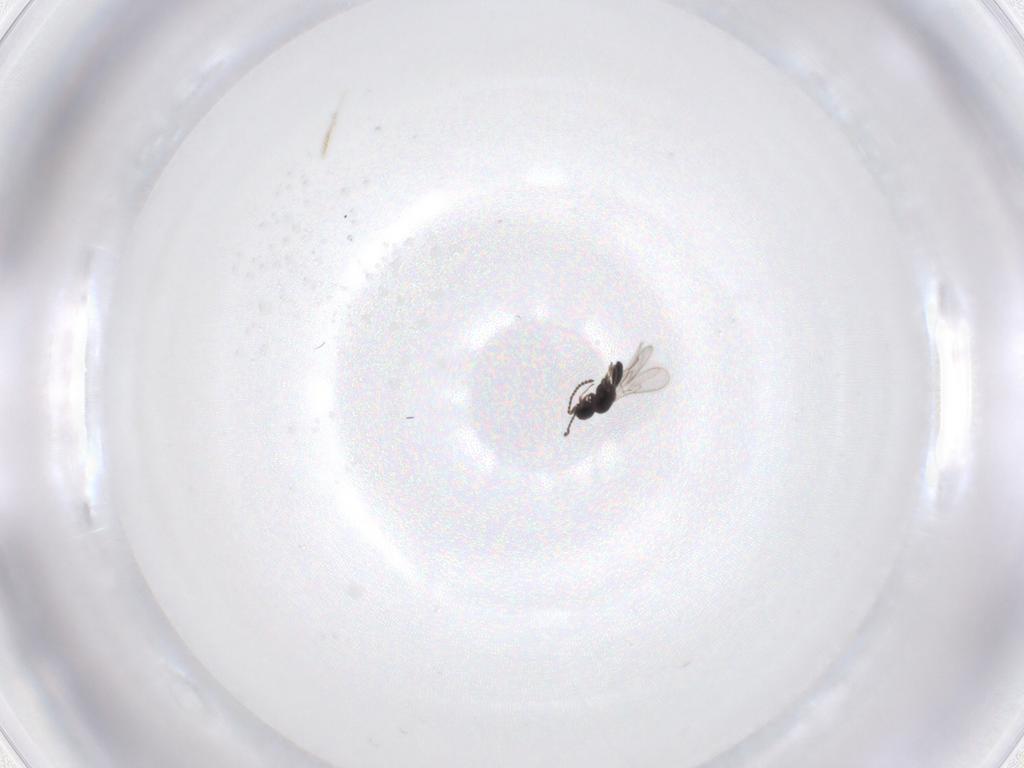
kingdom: Animalia
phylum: Arthropoda
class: Insecta
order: Hymenoptera
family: Scelionidae
